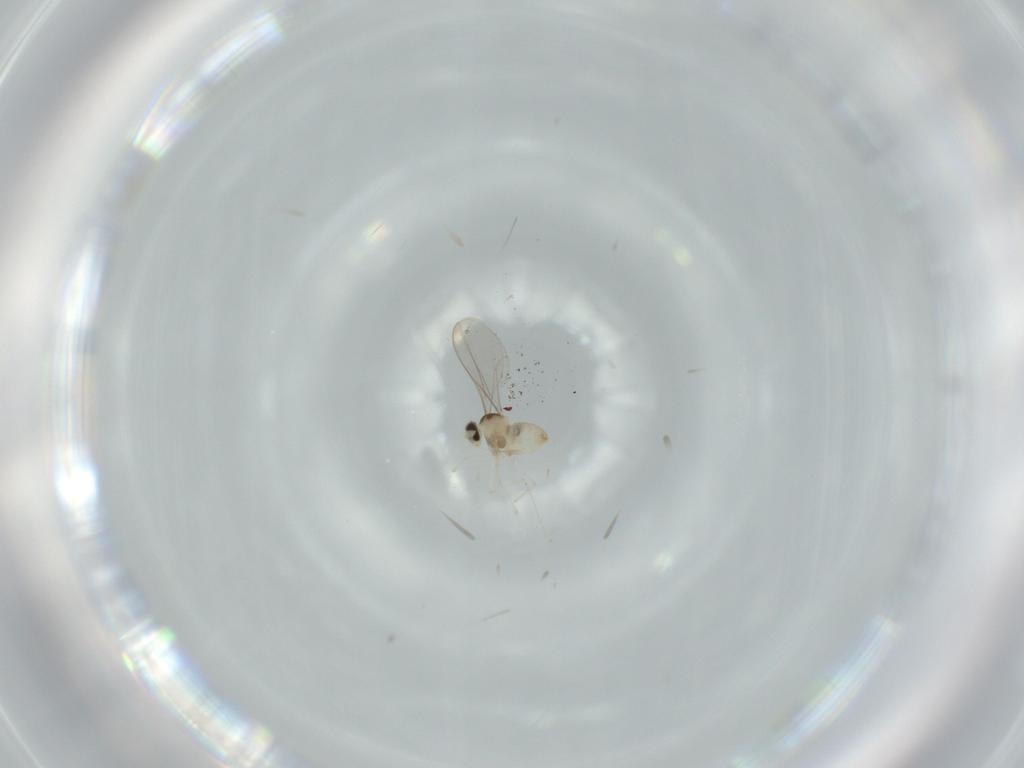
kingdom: Animalia
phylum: Arthropoda
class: Insecta
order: Diptera
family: Cecidomyiidae
